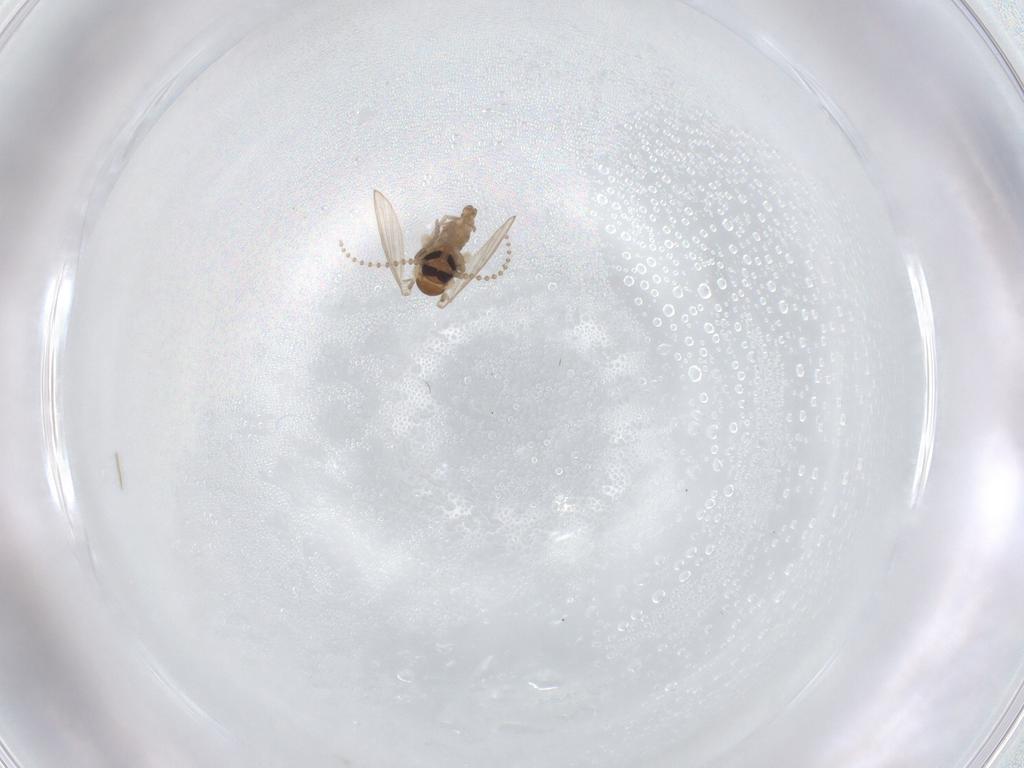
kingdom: Animalia
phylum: Arthropoda
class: Insecta
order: Diptera
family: Psychodidae
